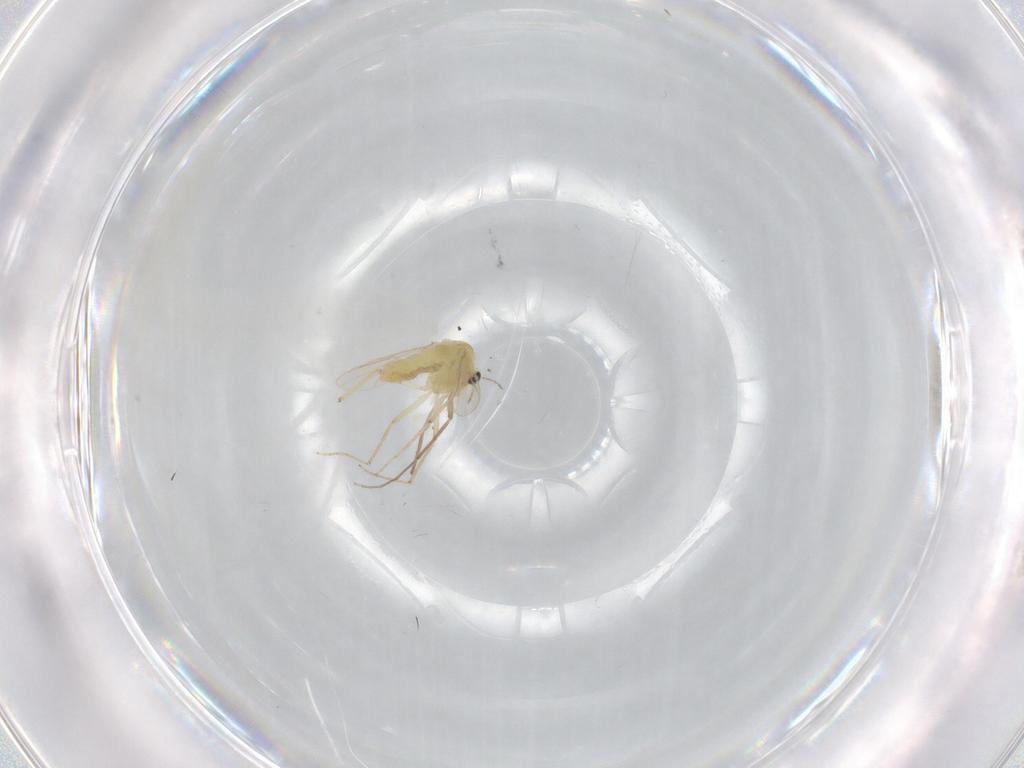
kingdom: Animalia
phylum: Arthropoda
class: Insecta
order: Diptera
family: Chironomidae
